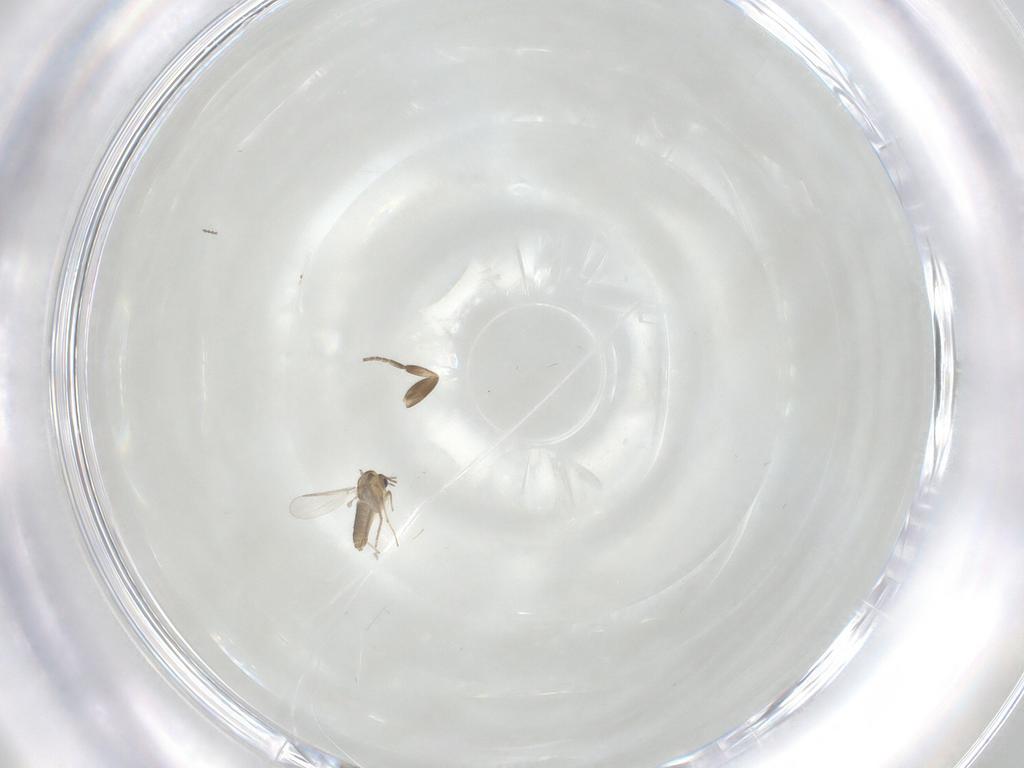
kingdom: Animalia
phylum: Arthropoda
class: Insecta
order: Diptera
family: Chironomidae
